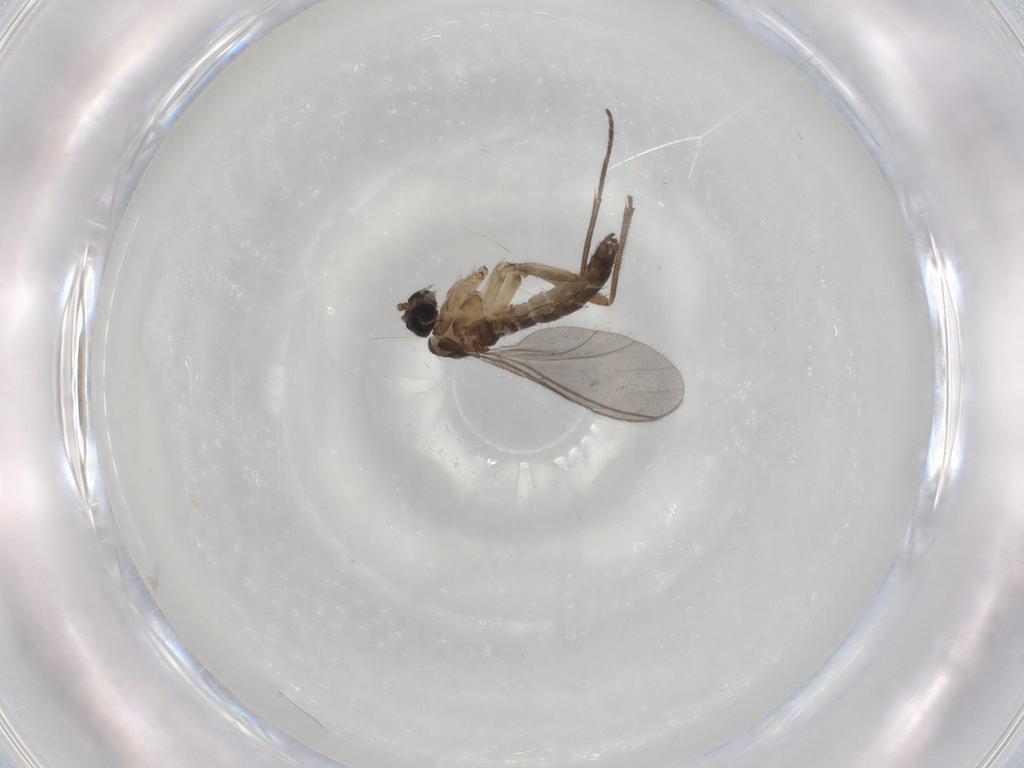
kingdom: Animalia
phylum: Arthropoda
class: Insecta
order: Diptera
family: Sciaridae
